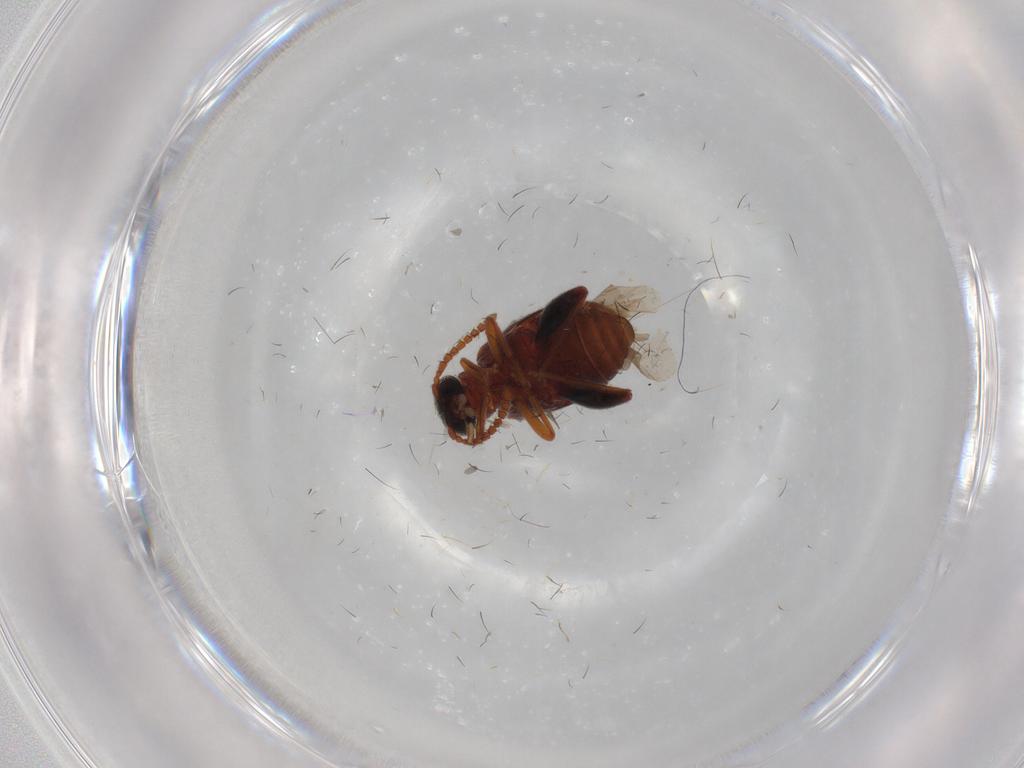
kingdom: Animalia
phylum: Arthropoda
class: Insecta
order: Coleoptera
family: Aderidae
